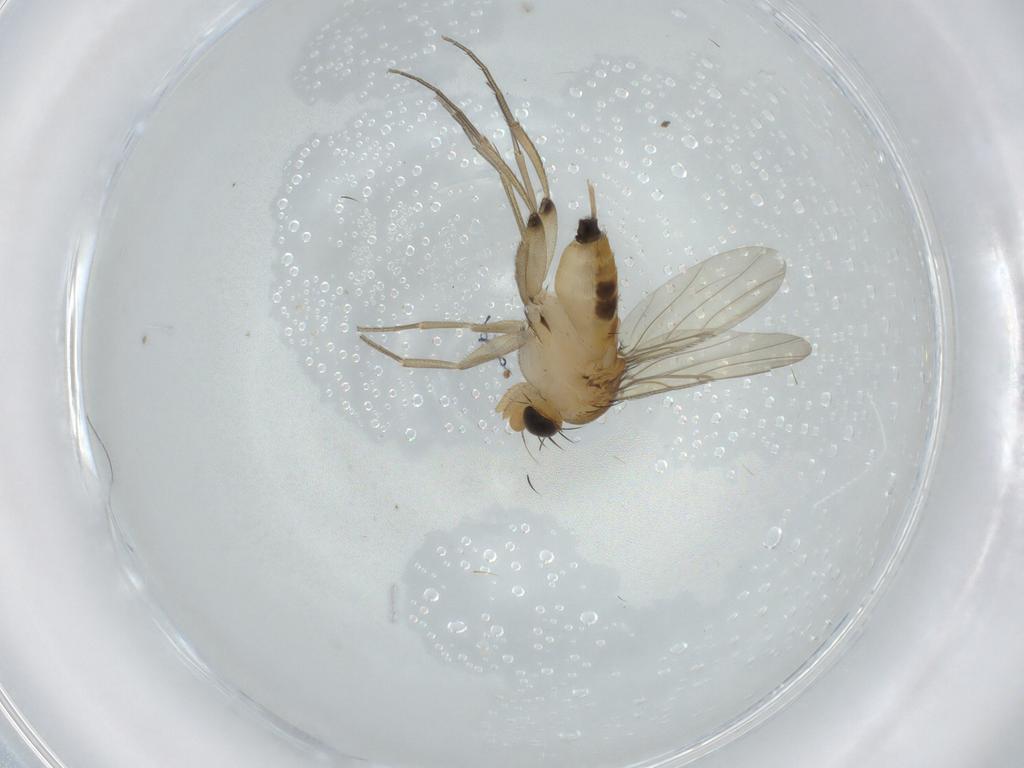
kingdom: Animalia
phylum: Arthropoda
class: Insecta
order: Diptera
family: Phoridae
